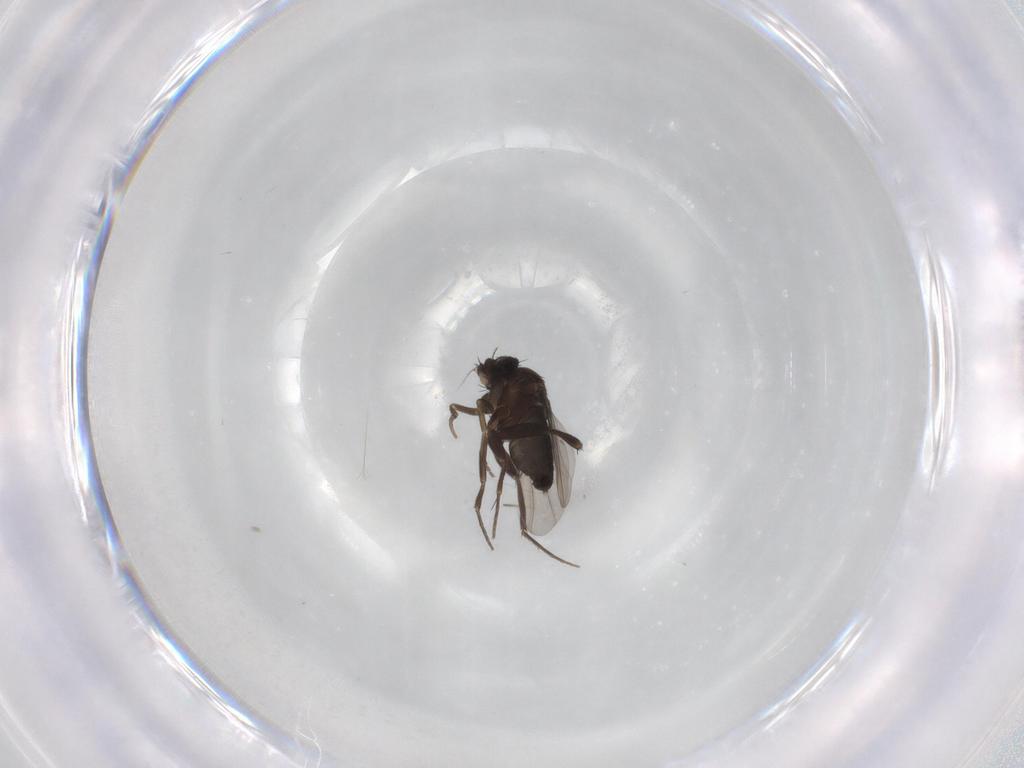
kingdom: Animalia
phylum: Arthropoda
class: Insecta
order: Diptera
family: Phoridae
